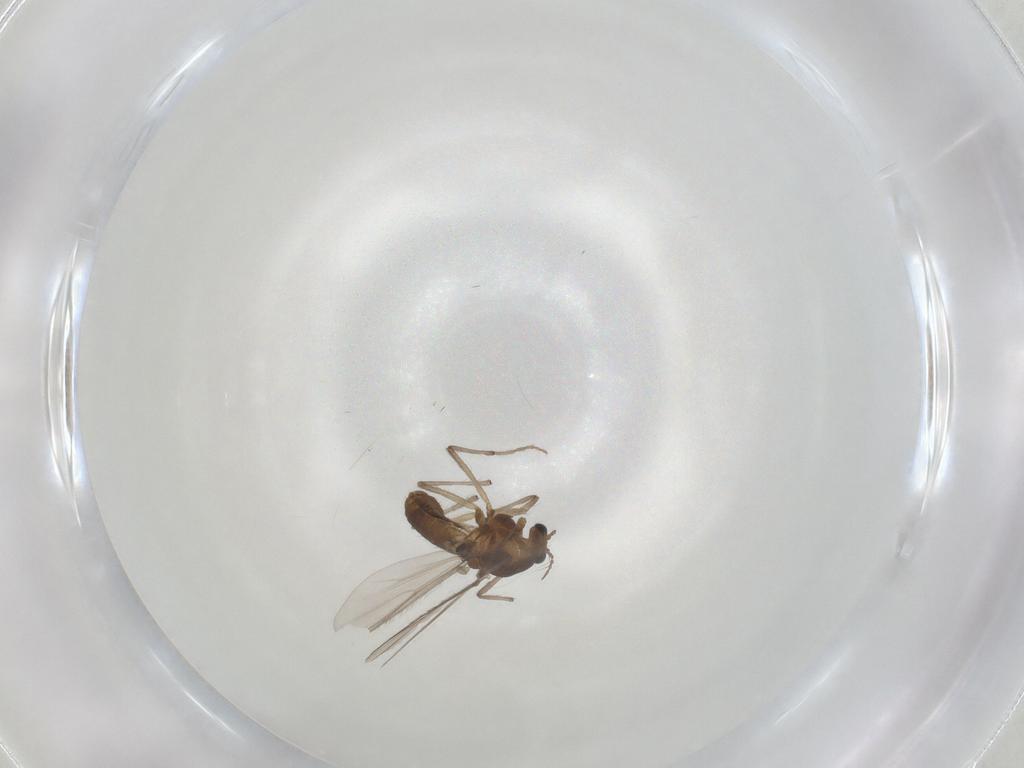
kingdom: Animalia
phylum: Arthropoda
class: Insecta
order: Diptera
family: Chironomidae
